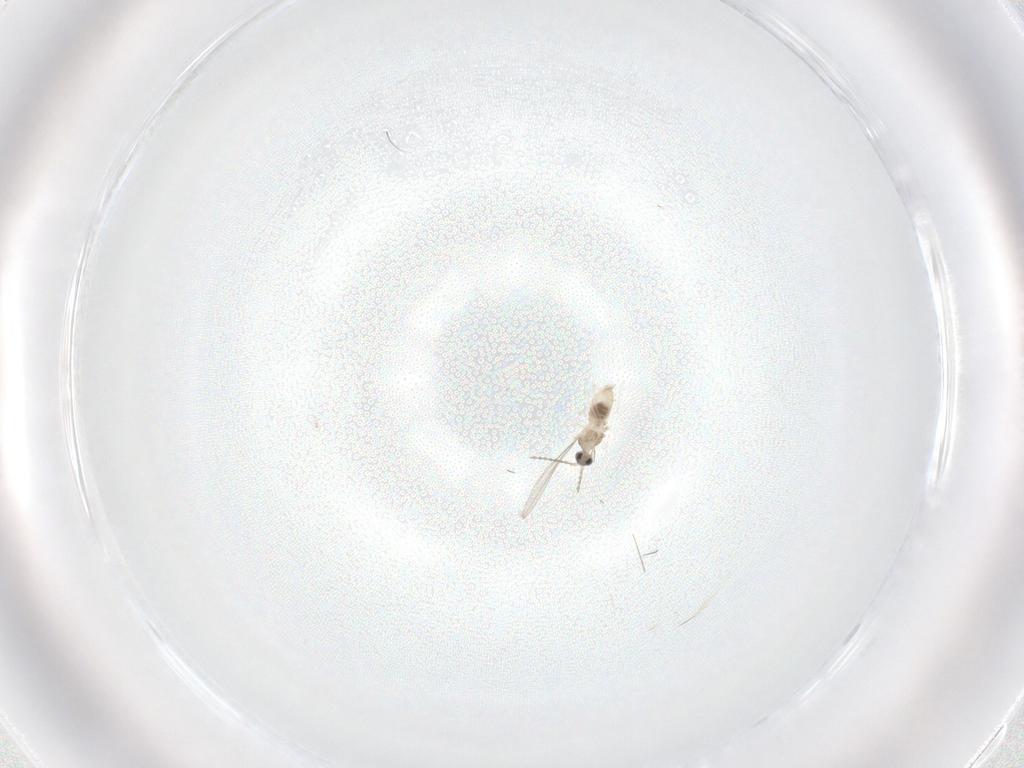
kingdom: Animalia
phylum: Arthropoda
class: Insecta
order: Diptera
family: Cecidomyiidae
